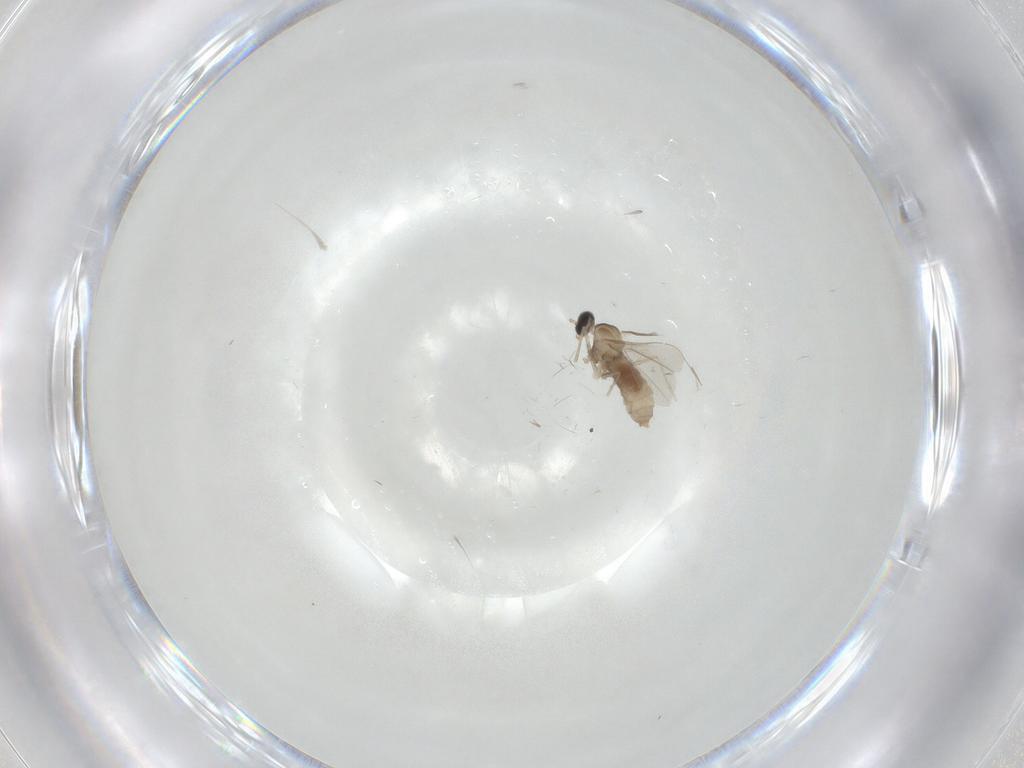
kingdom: Animalia
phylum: Arthropoda
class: Insecta
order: Diptera
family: Cecidomyiidae
